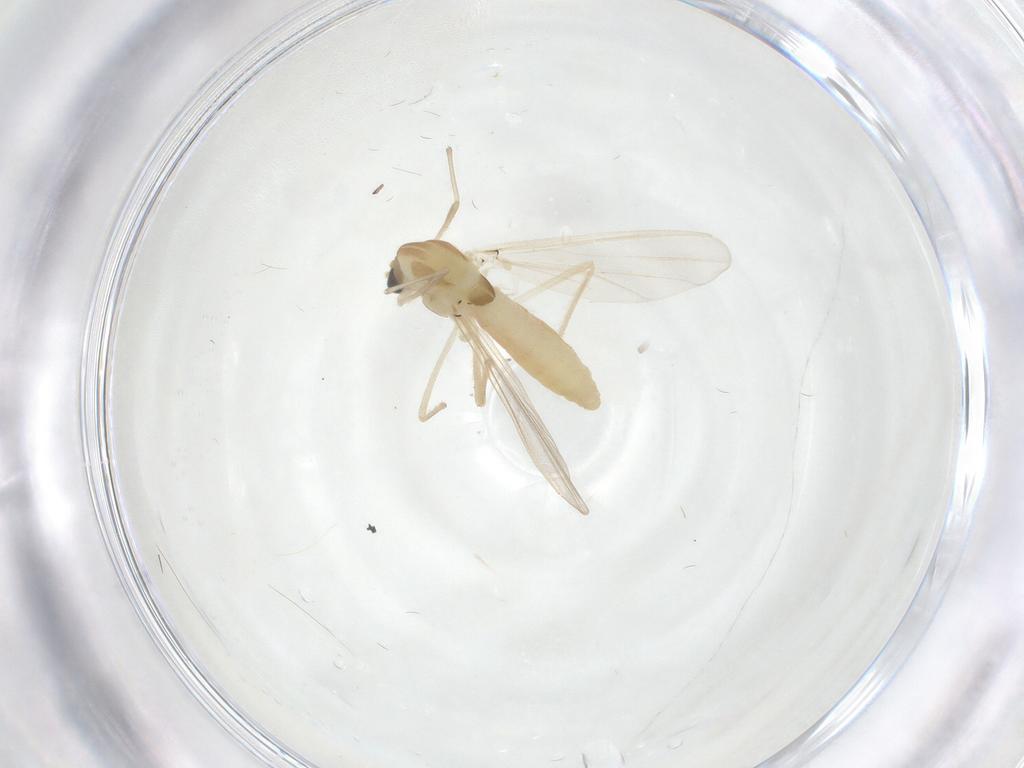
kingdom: Animalia
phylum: Arthropoda
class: Insecta
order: Diptera
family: Chironomidae
